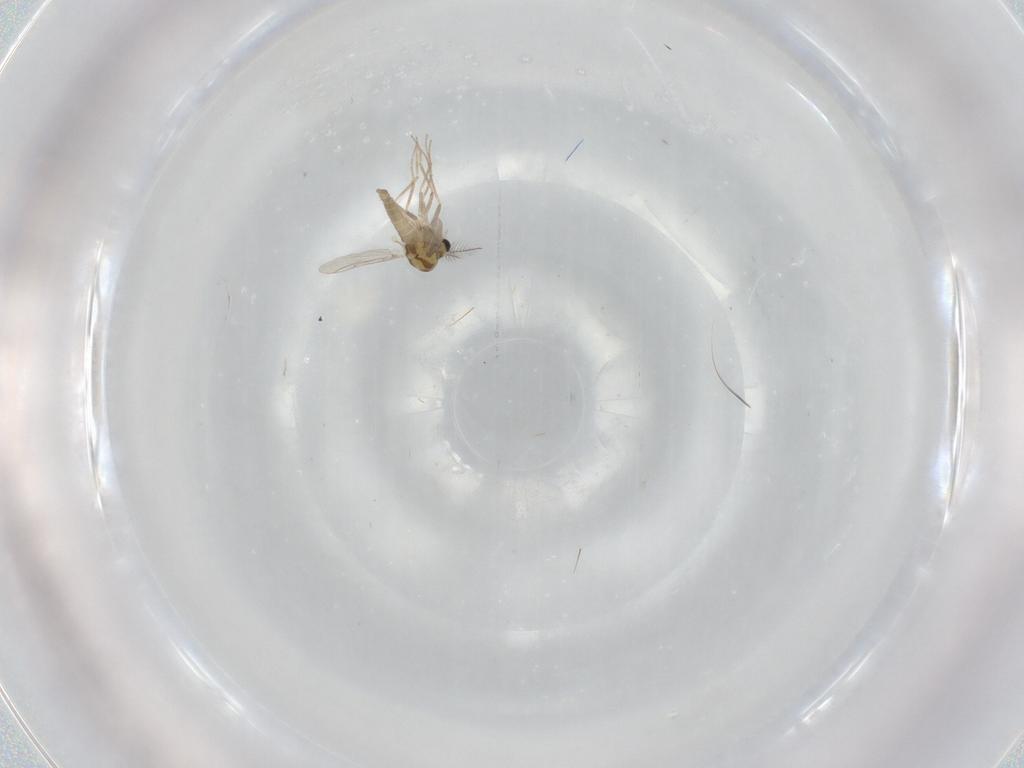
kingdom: Animalia
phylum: Arthropoda
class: Insecta
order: Diptera
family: Chironomidae
